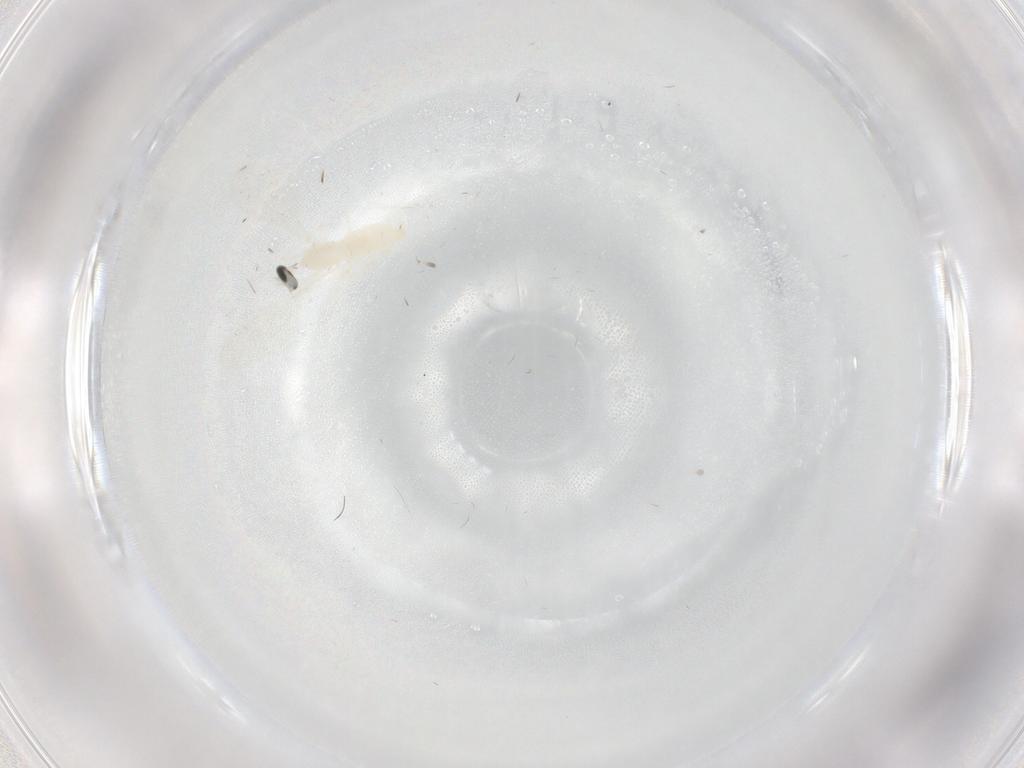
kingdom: Animalia
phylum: Arthropoda
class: Insecta
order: Diptera
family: Cecidomyiidae
